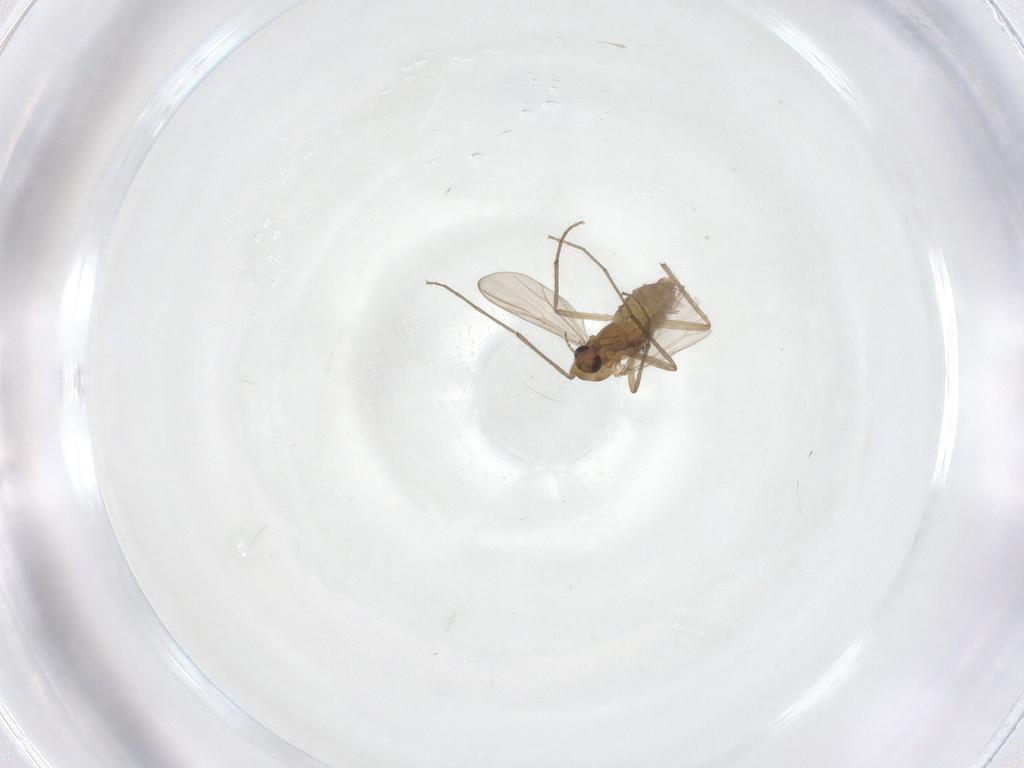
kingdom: Animalia
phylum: Arthropoda
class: Insecta
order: Diptera
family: Chironomidae
